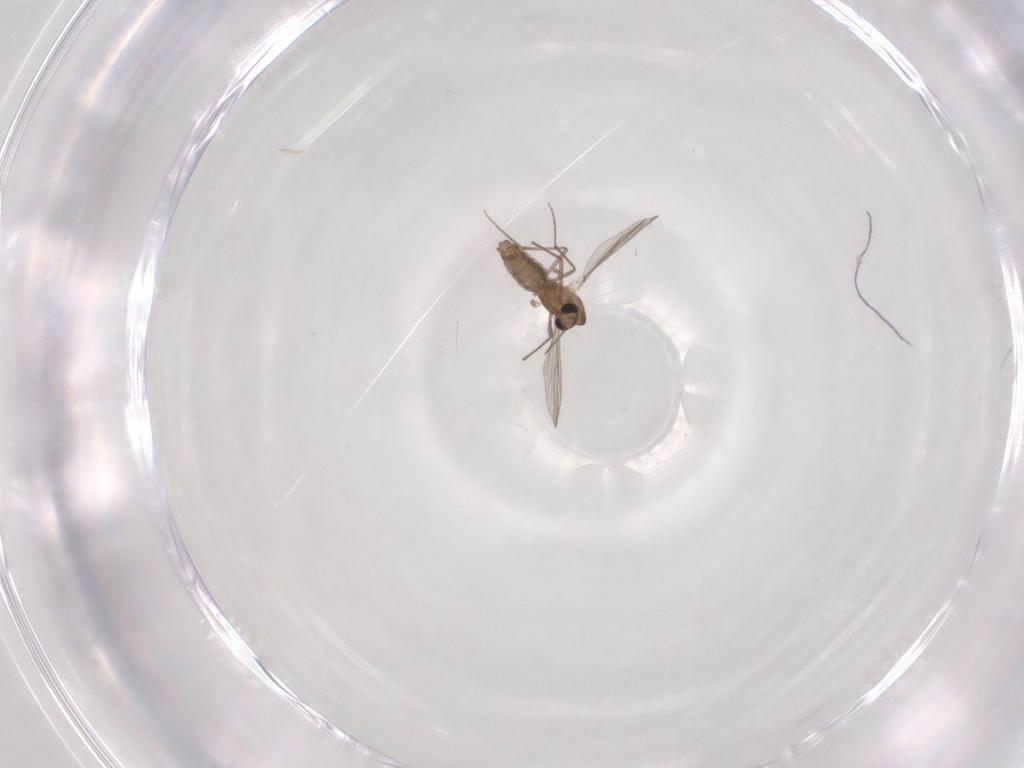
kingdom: Animalia
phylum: Arthropoda
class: Insecta
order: Diptera
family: Chironomidae
